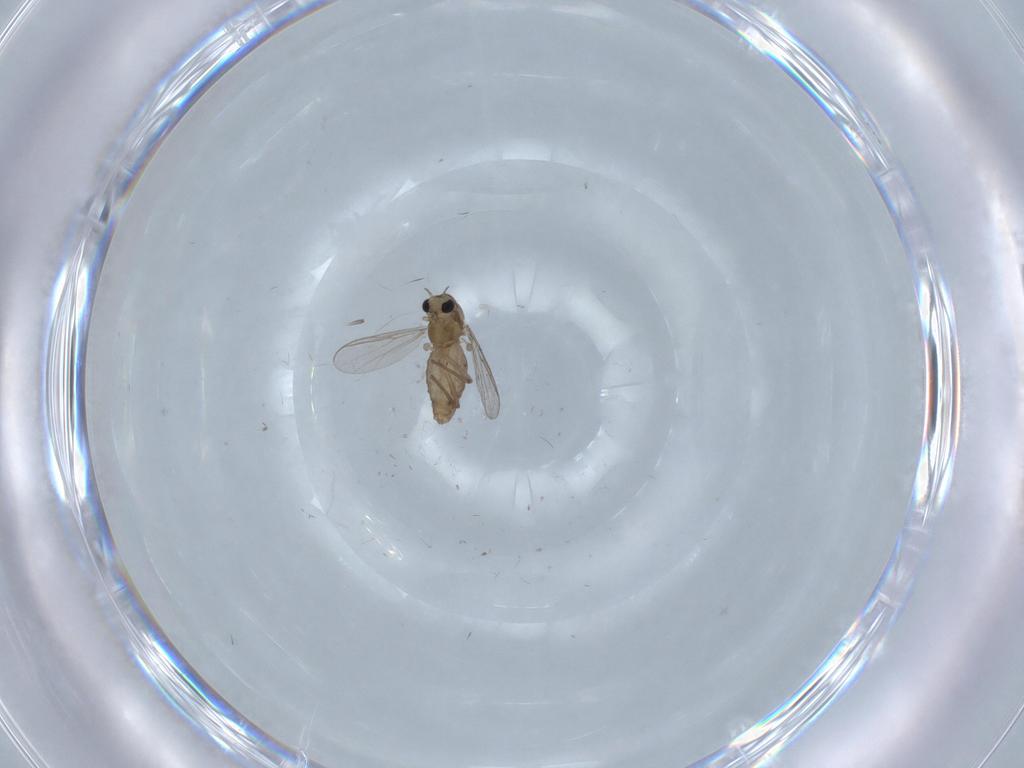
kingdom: Animalia
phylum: Arthropoda
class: Insecta
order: Diptera
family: Chironomidae
